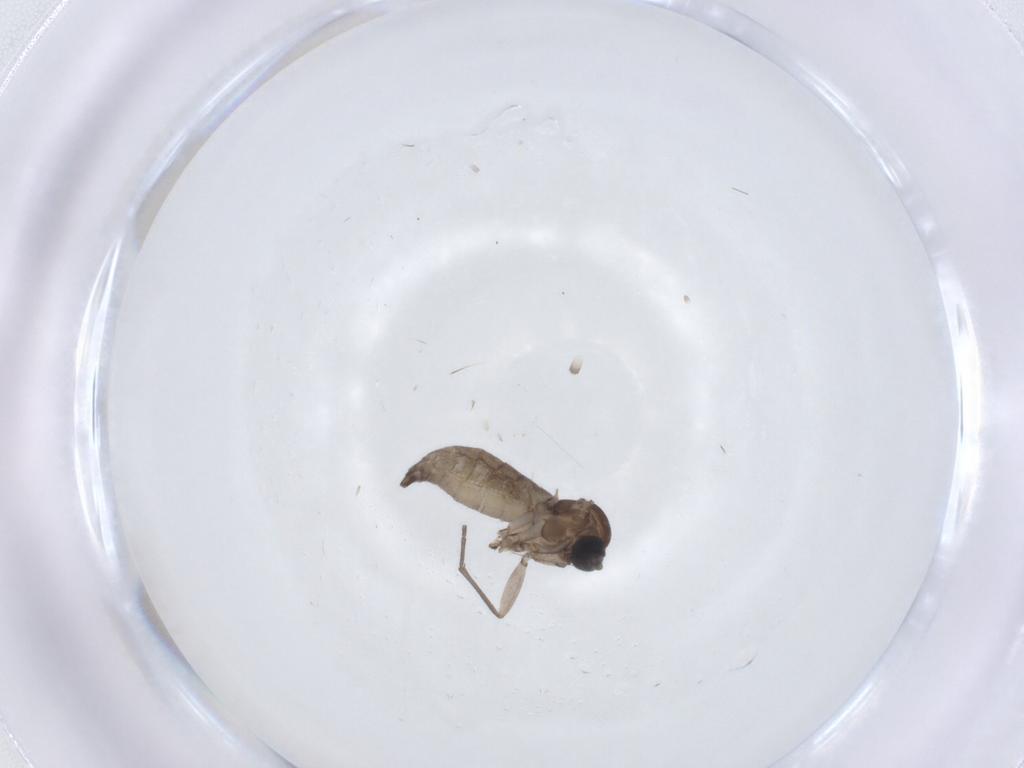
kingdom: Animalia
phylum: Arthropoda
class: Insecta
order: Diptera
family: Sciaridae
